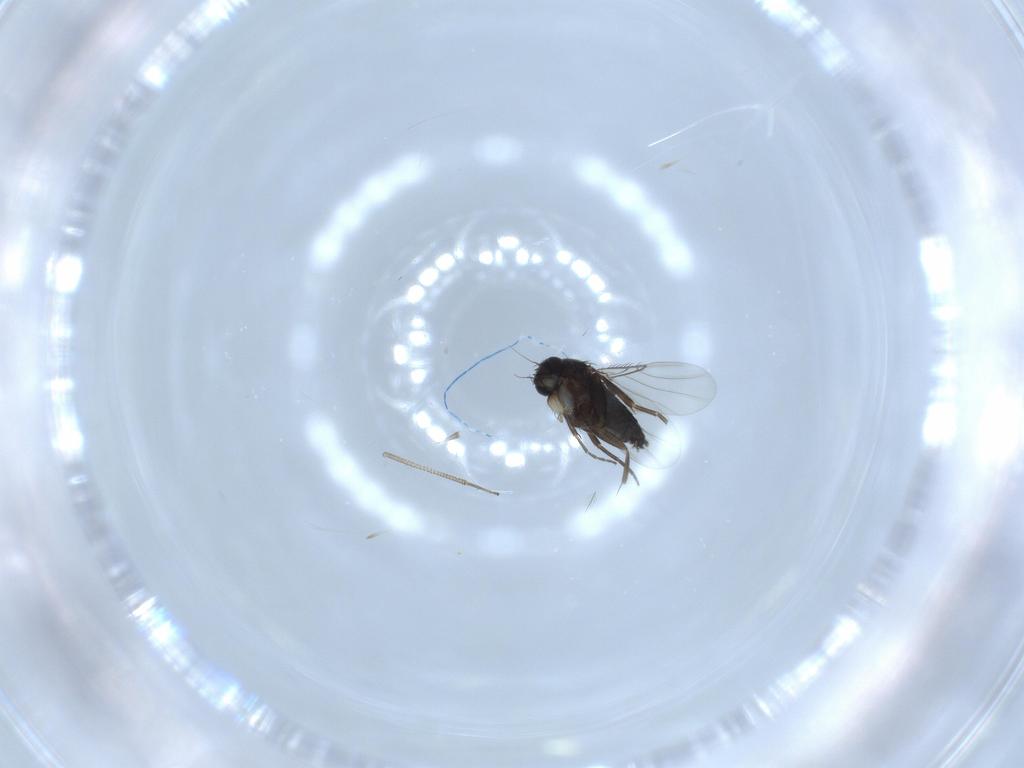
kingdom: Animalia
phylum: Arthropoda
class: Insecta
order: Diptera
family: Phoridae
